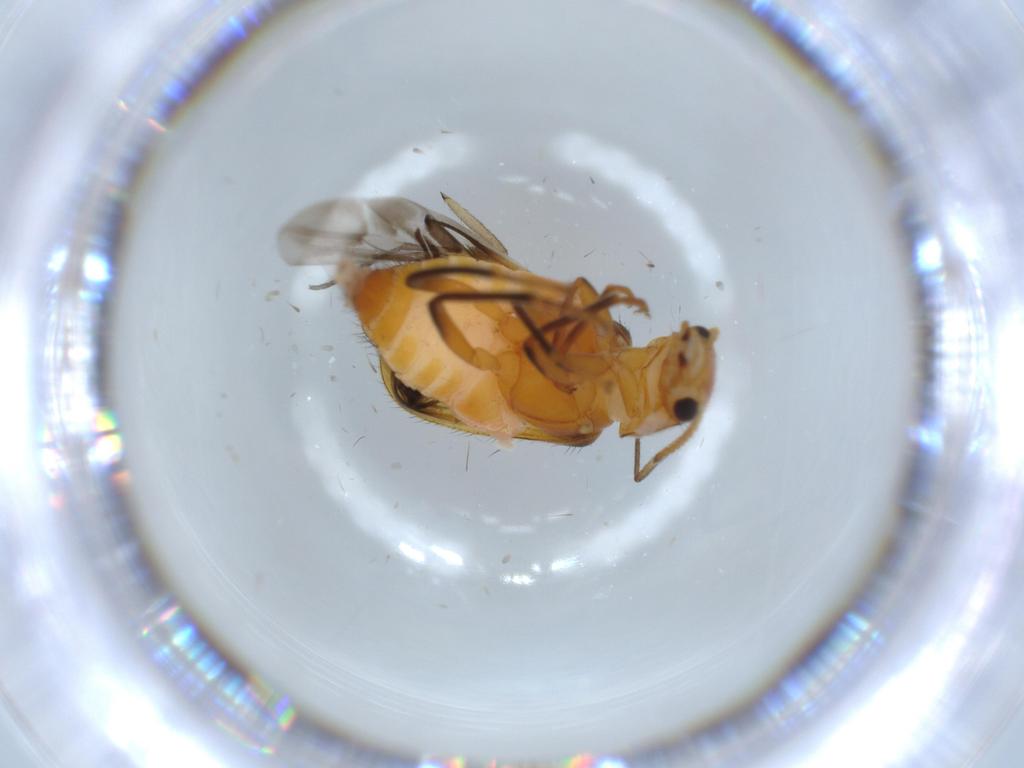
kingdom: Animalia
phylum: Arthropoda
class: Insecta
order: Coleoptera
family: Melyridae
